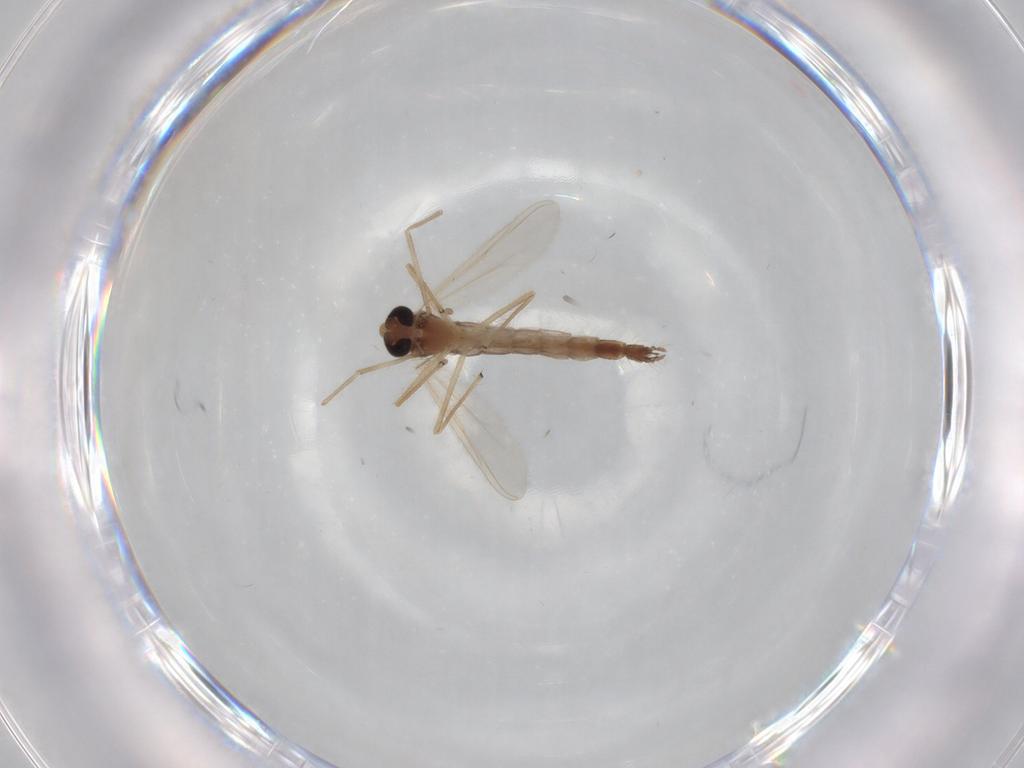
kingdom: Animalia
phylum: Arthropoda
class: Insecta
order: Diptera
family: Chironomidae
